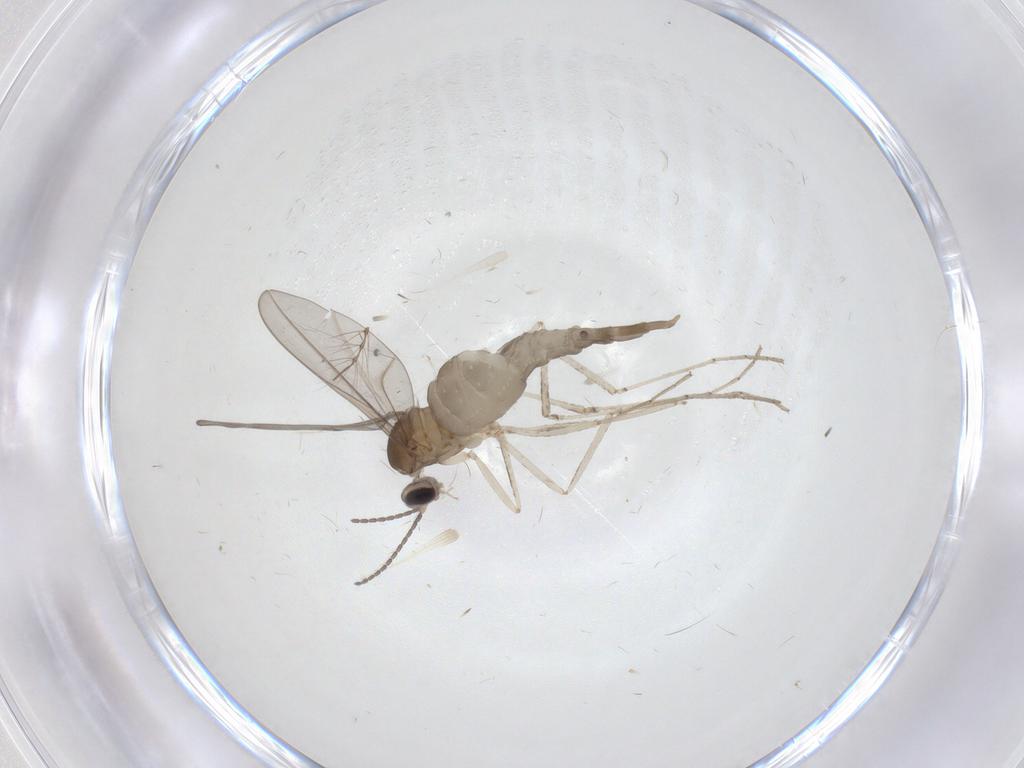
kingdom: Animalia
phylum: Arthropoda
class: Insecta
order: Diptera
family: Cecidomyiidae
